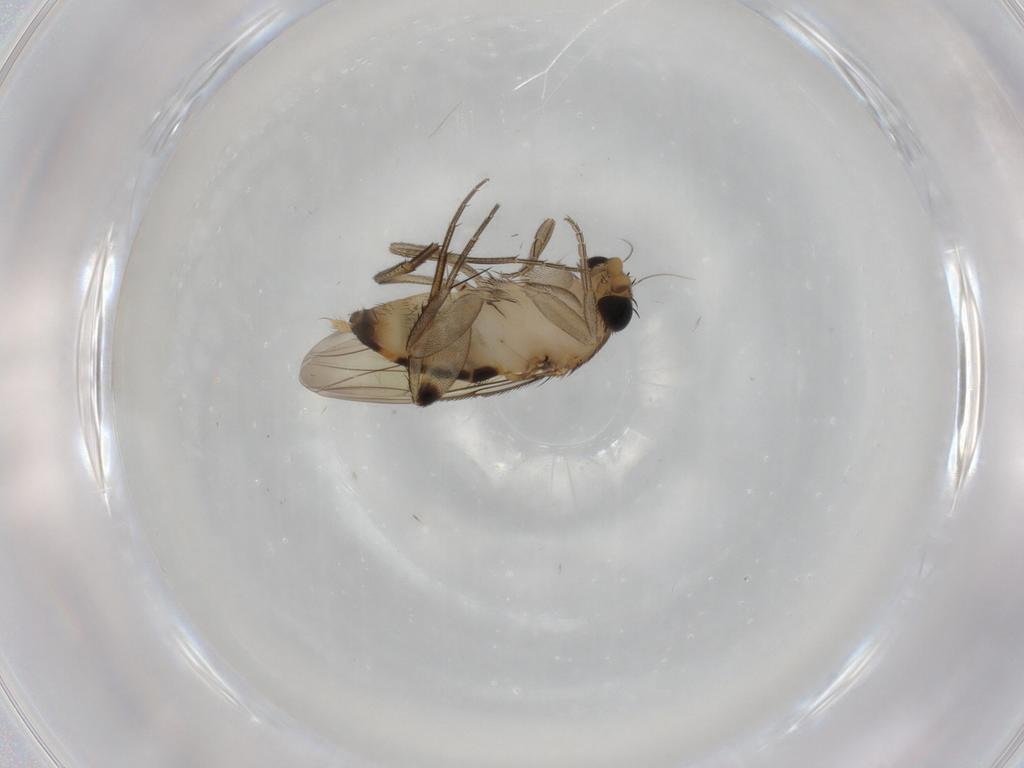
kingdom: Animalia
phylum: Arthropoda
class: Insecta
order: Diptera
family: Phoridae
